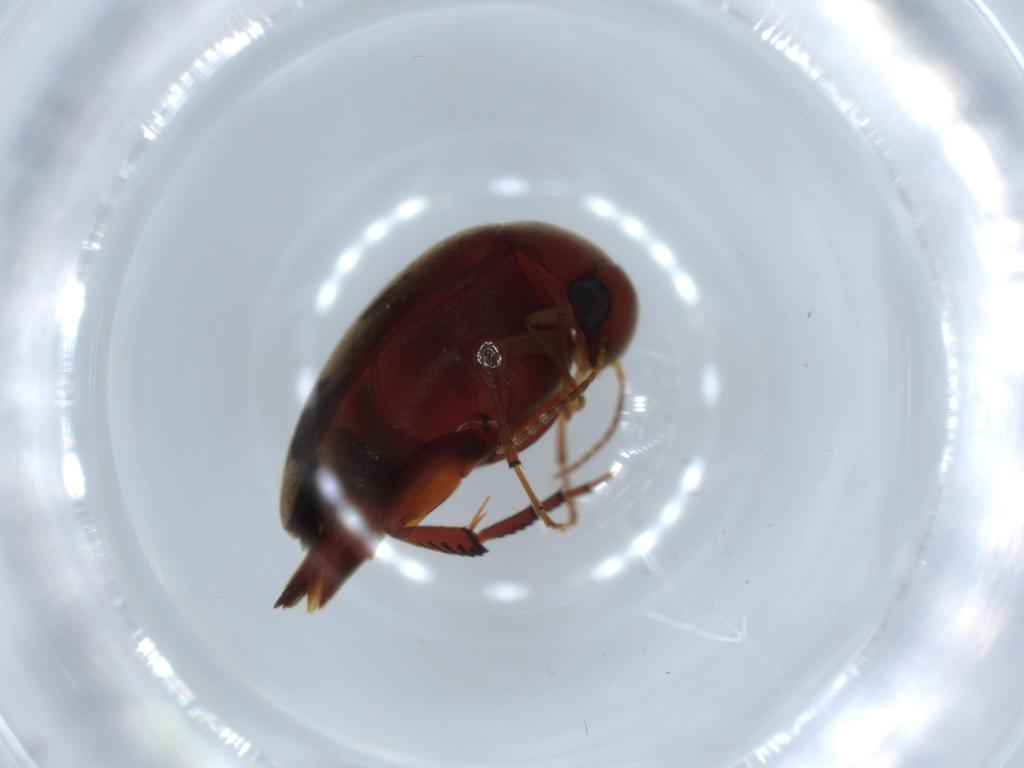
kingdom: Animalia
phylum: Arthropoda
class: Insecta
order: Coleoptera
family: Mordellidae
